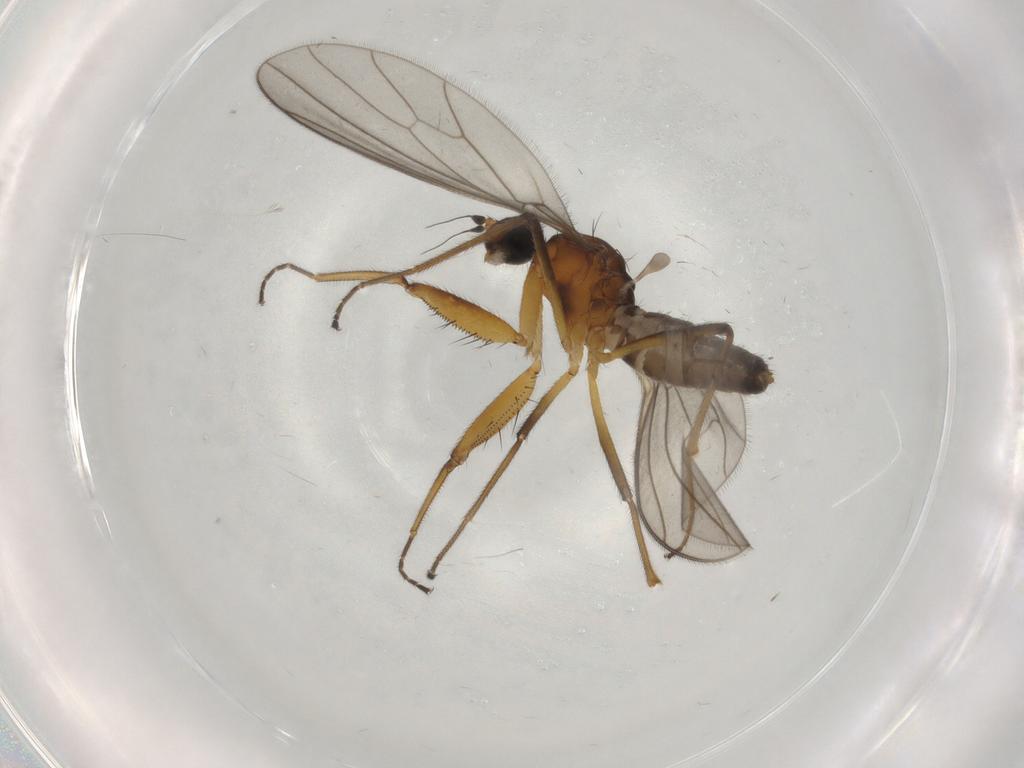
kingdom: Animalia
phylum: Arthropoda
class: Insecta
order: Diptera
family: Empididae
